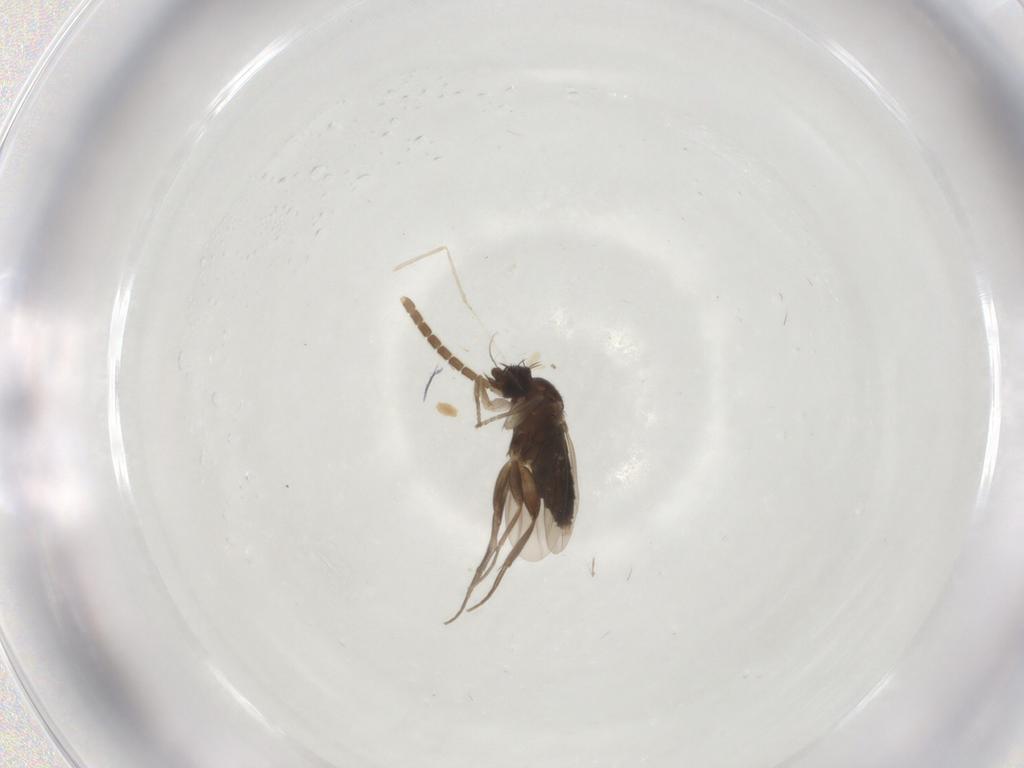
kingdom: Animalia
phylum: Arthropoda
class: Insecta
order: Diptera
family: Phoridae
